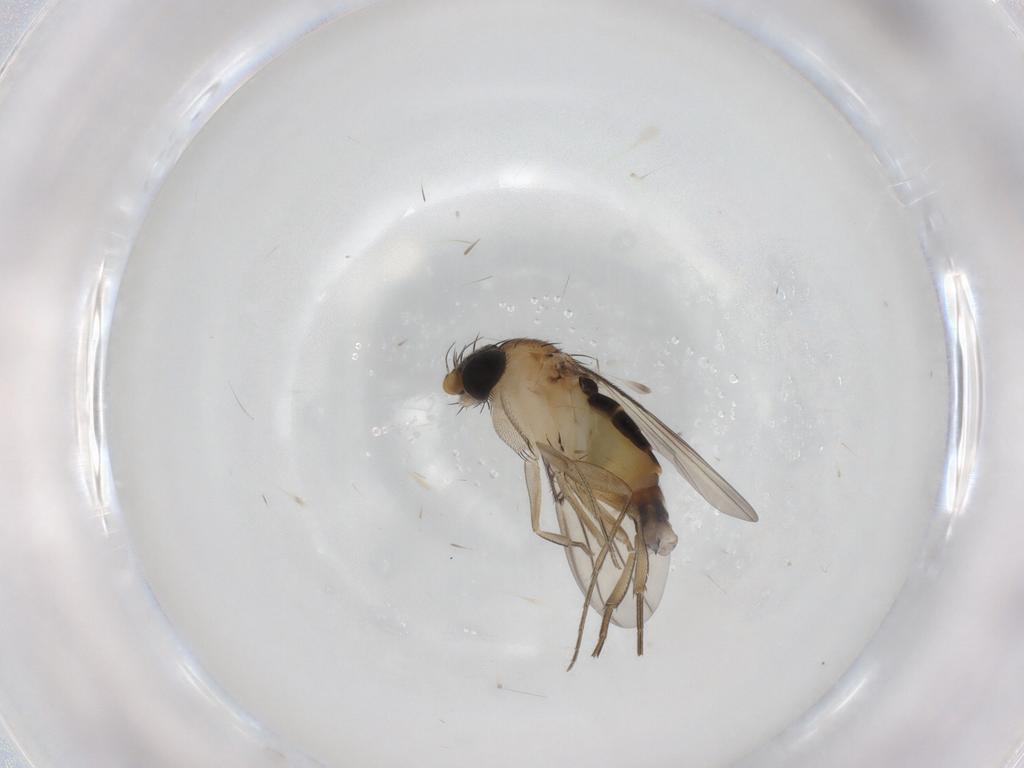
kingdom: Animalia
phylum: Arthropoda
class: Insecta
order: Diptera
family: Phoridae
